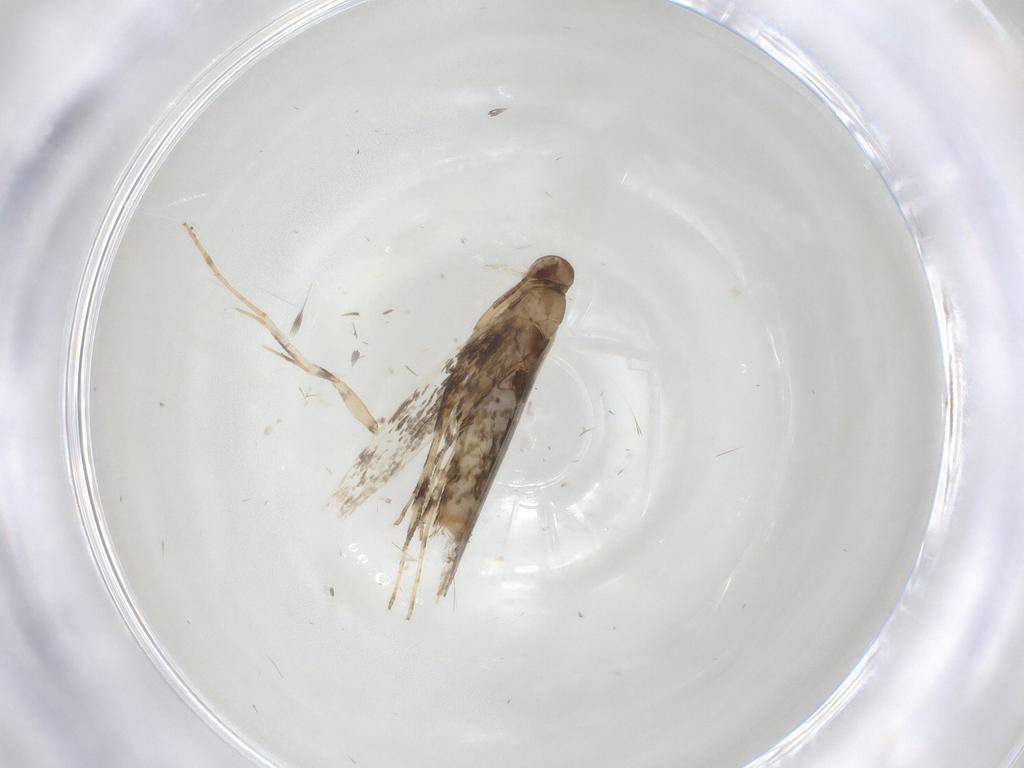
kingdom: Animalia
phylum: Arthropoda
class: Insecta
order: Lepidoptera
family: Gracillariidae
